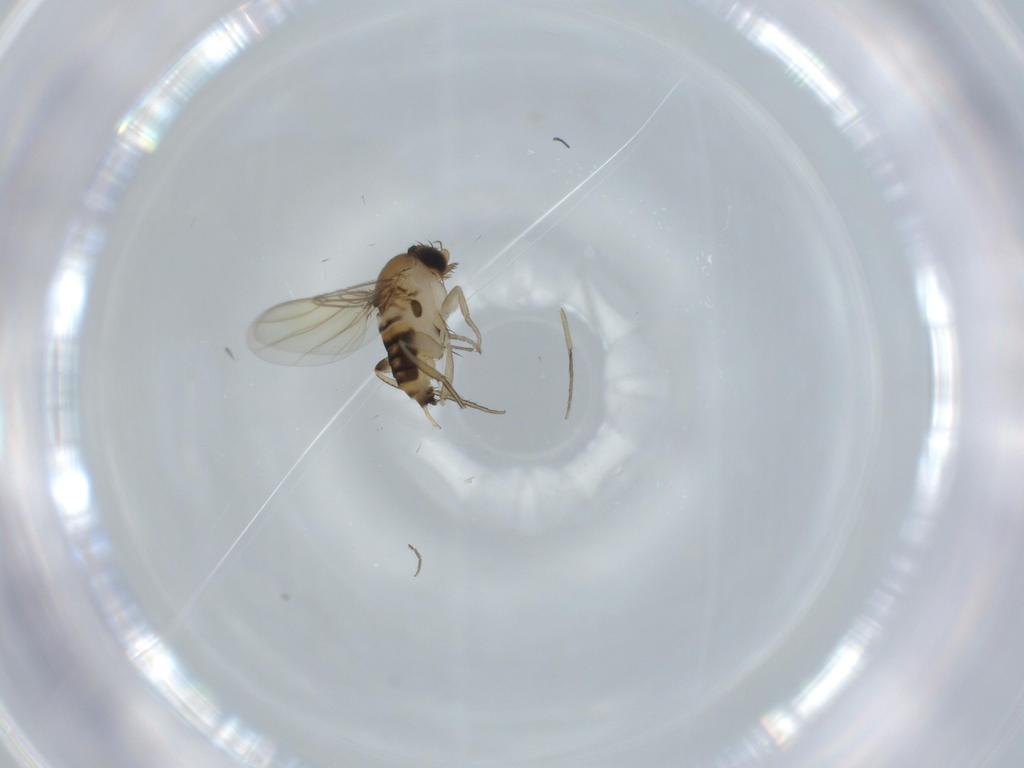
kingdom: Animalia
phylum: Arthropoda
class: Insecta
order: Diptera
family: Phoridae
